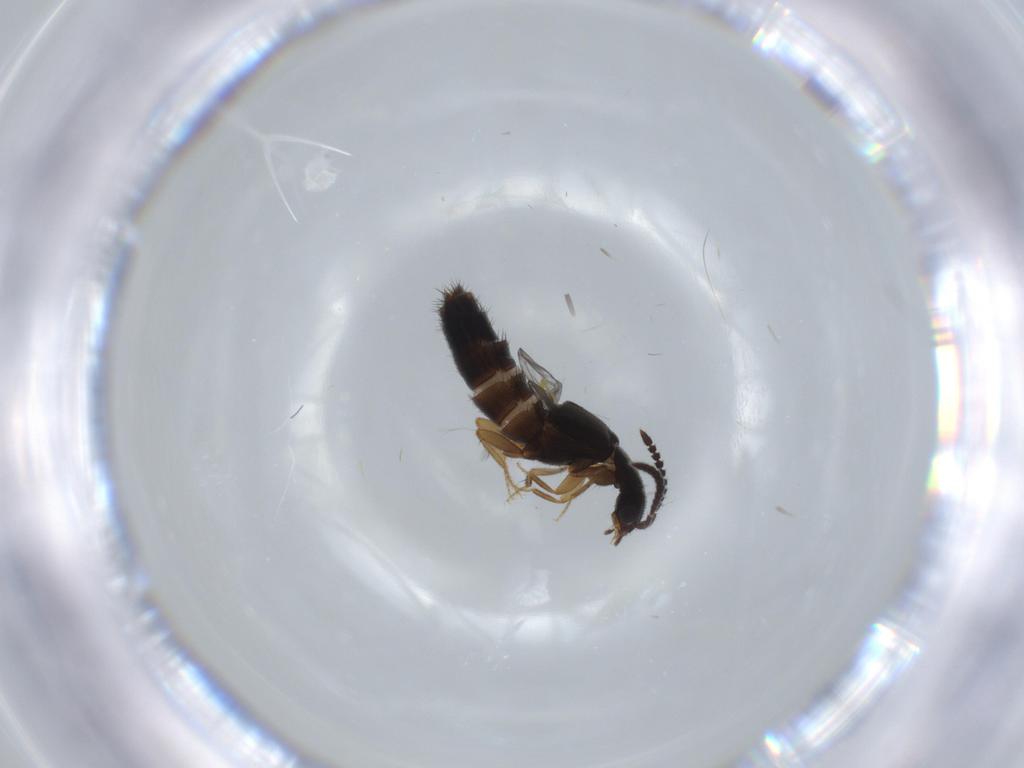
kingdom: Animalia
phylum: Arthropoda
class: Insecta
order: Coleoptera
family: Staphylinidae
